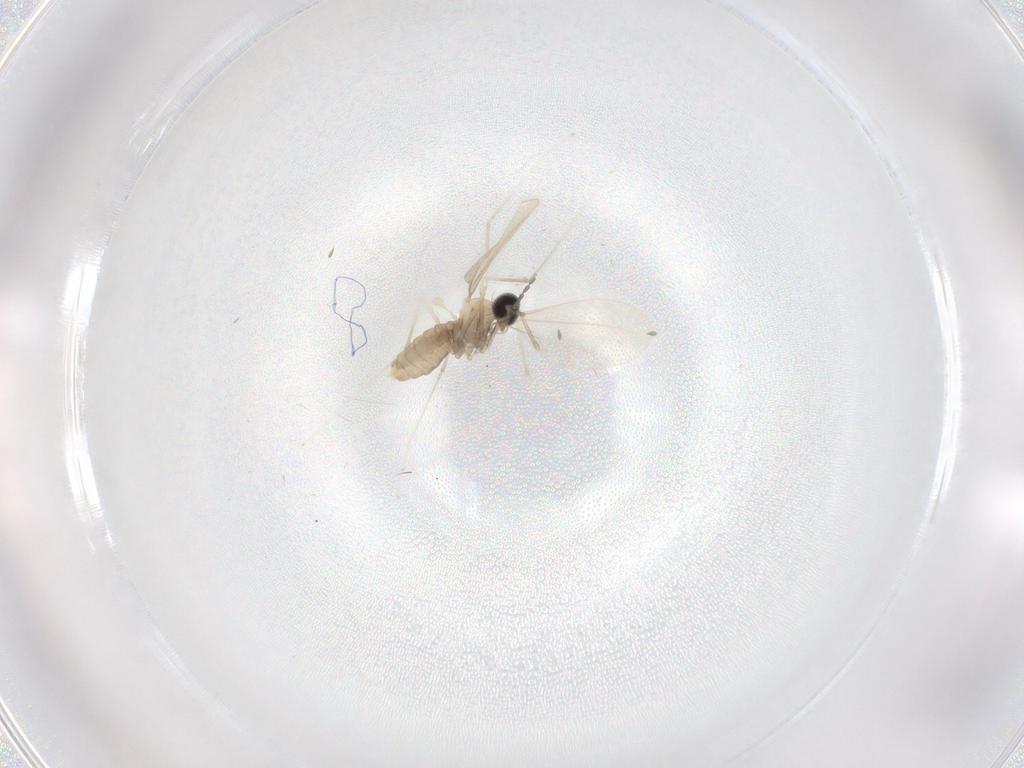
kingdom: Animalia
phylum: Arthropoda
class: Insecta
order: Diptera
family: Cecidomyiidae
